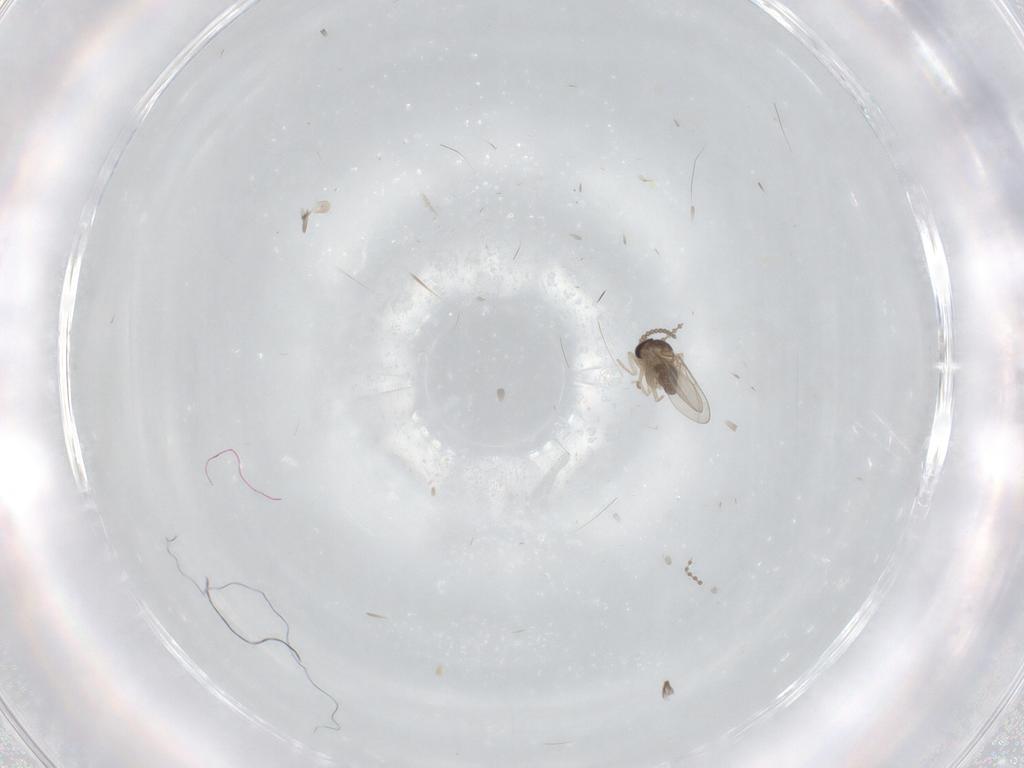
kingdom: Animalia
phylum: Arthropoda
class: Insecta
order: Diptera
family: Cecidomyiidae
